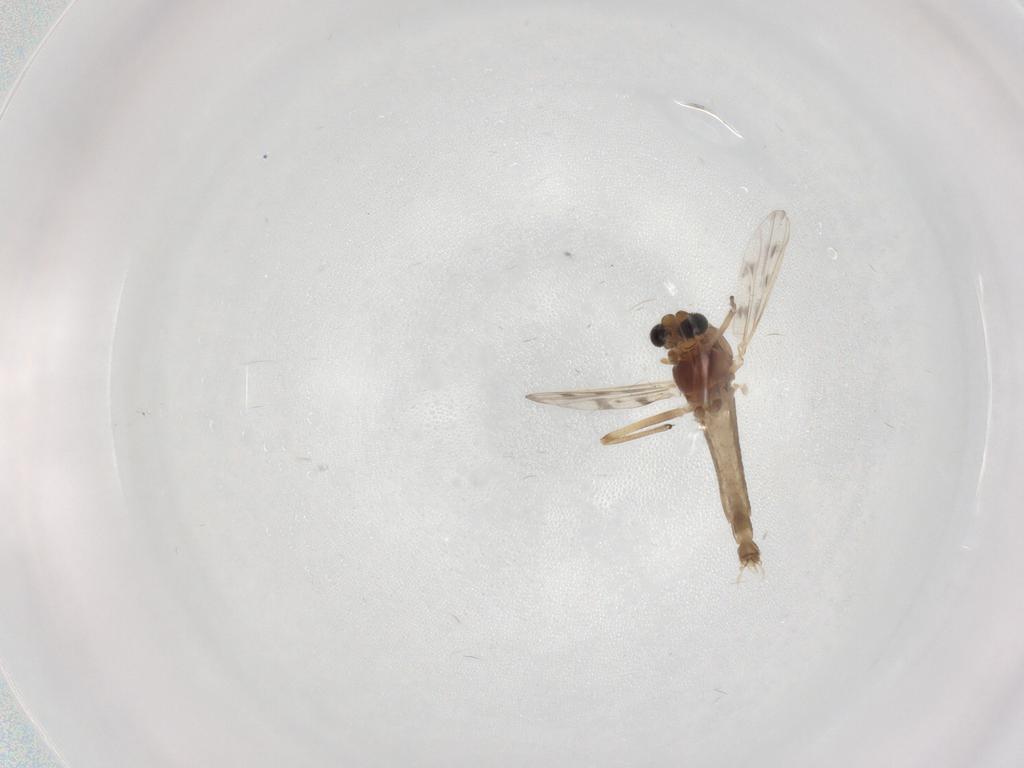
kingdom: Animalia
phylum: Arthropoda
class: Insecta
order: Diptera
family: Chironomidae
